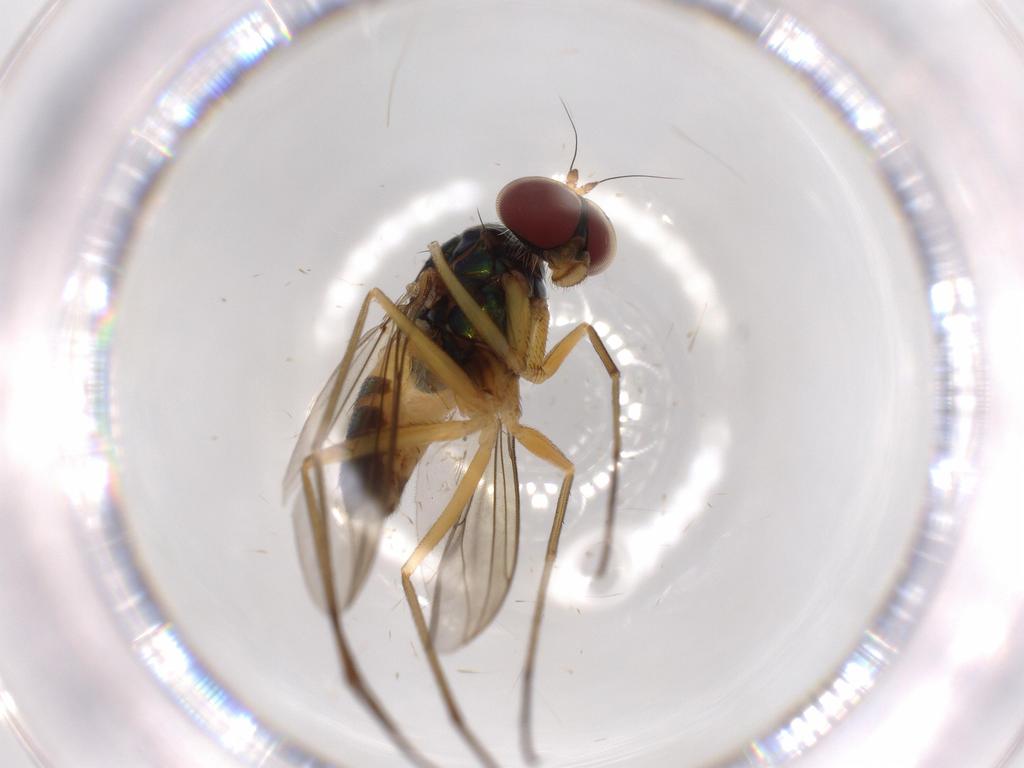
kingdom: Animalia
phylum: Arthropoda
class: Insecta
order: Diptera
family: Dolichopodidae
